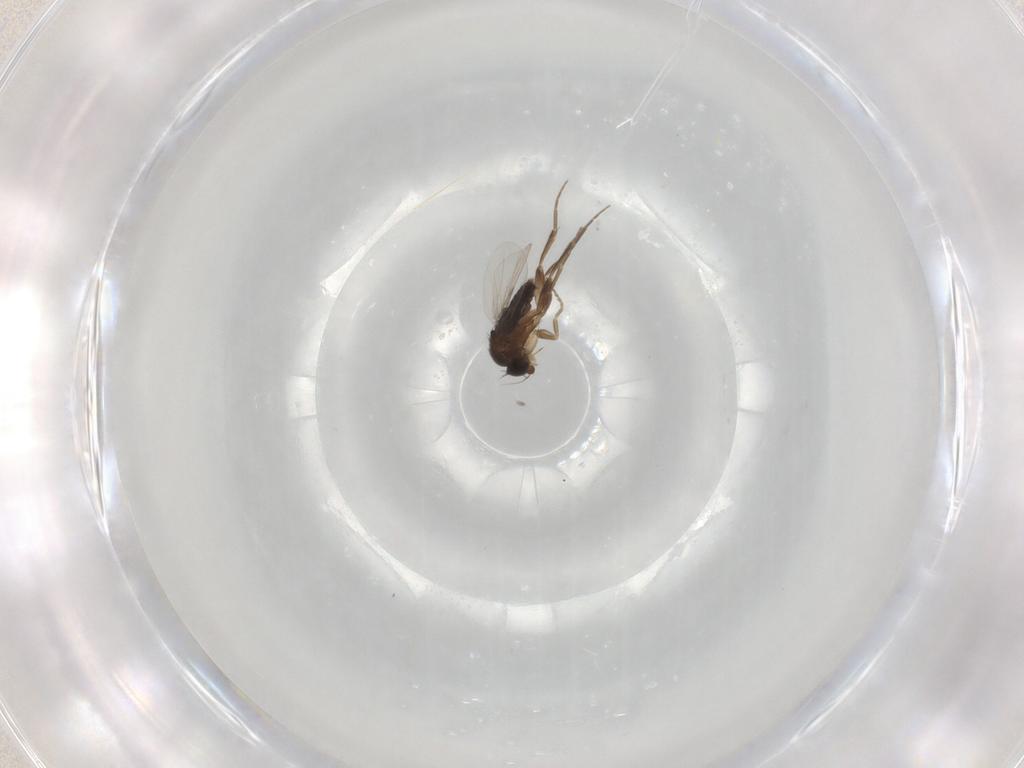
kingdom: Animalia
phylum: Arthropoda
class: Insecta
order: Diptera
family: Phoridae
